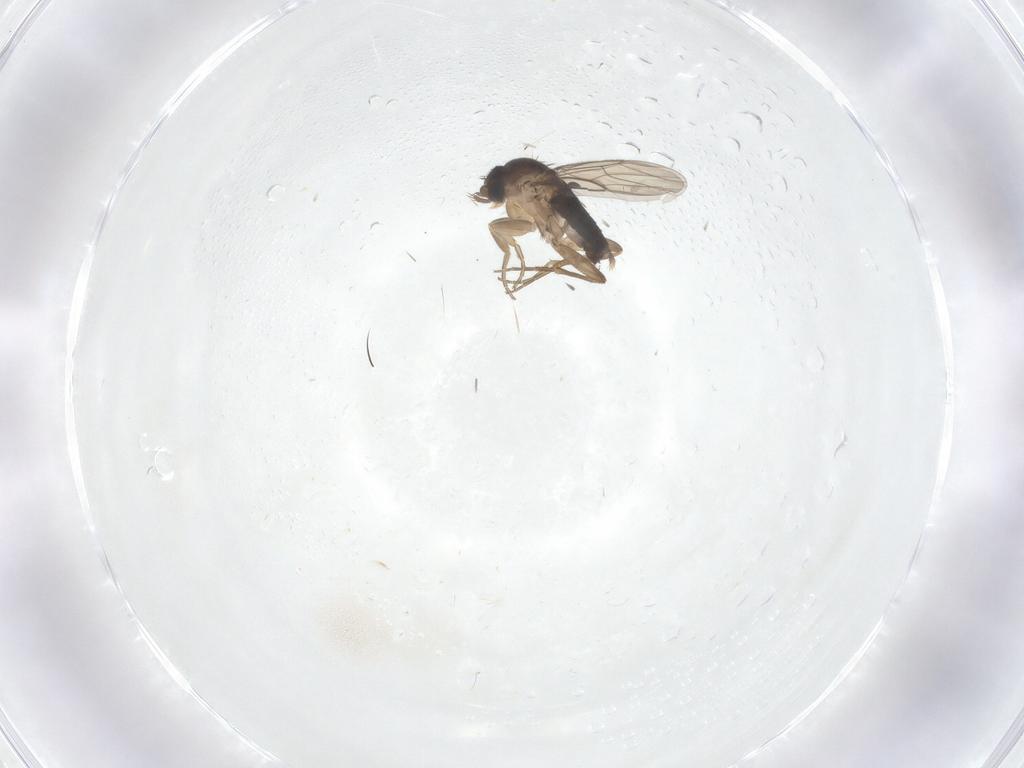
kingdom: Animalia
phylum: Arthropoda
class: Insecta
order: Diptera
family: Phoridae
